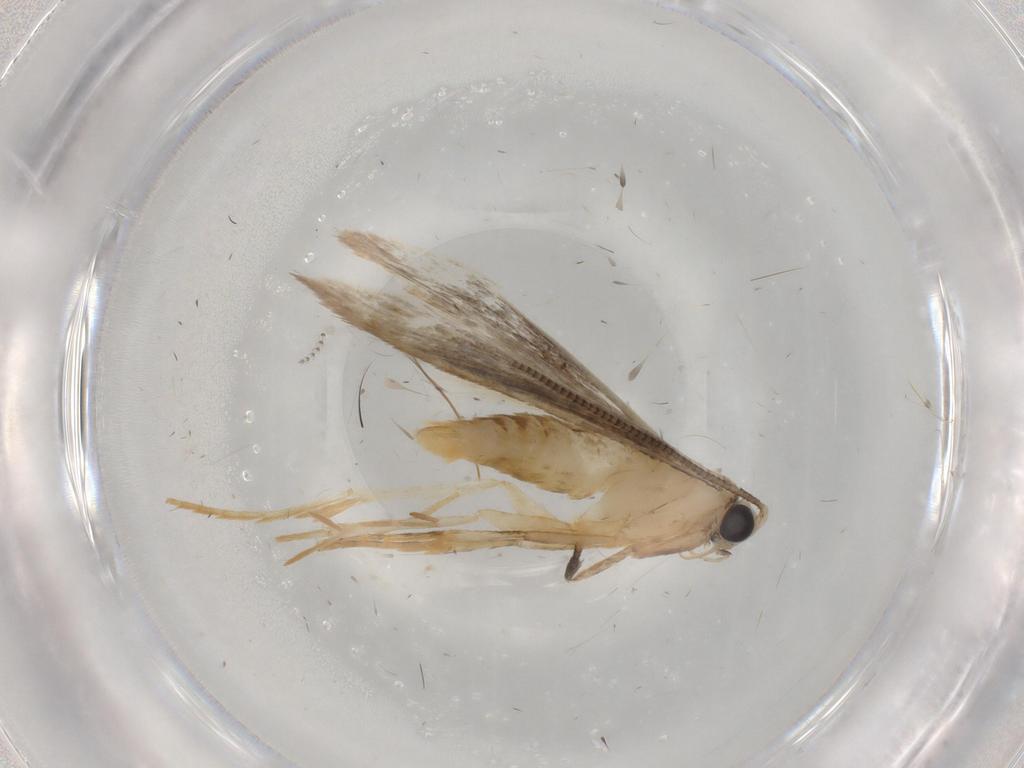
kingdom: Animalia
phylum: Arthropoda
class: Insecta
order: Lepidoptera
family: Tineidae
